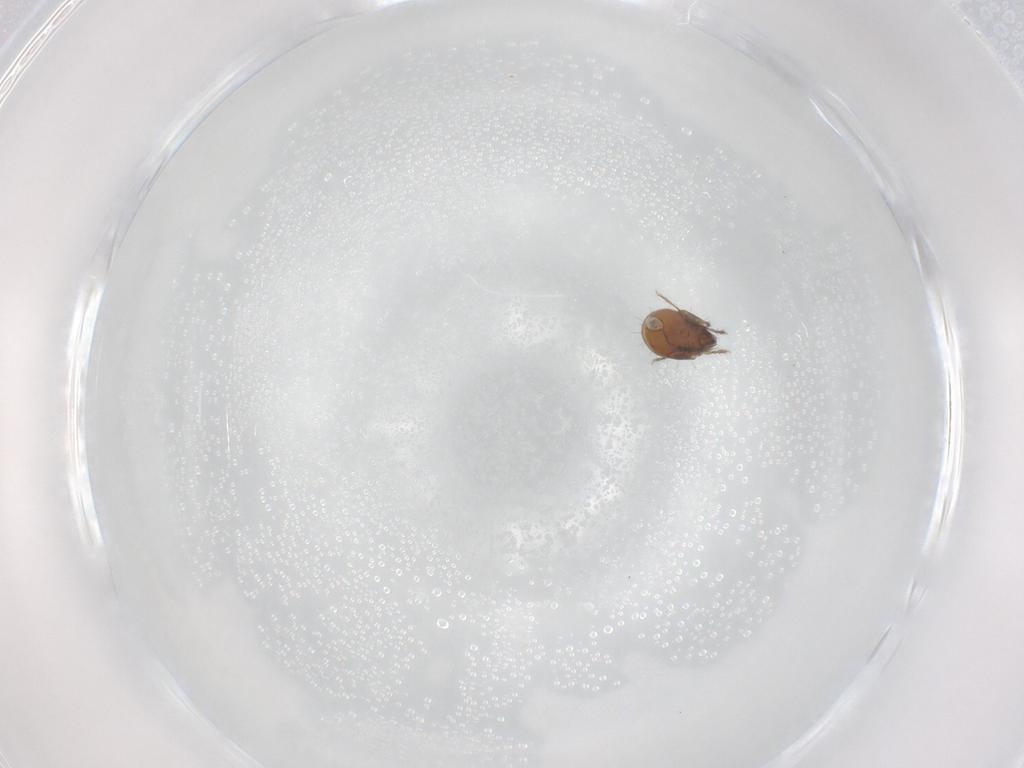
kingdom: Animalia
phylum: Arthropoda
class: Arachnida
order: Sarcoptiformes
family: Humerobatidae
